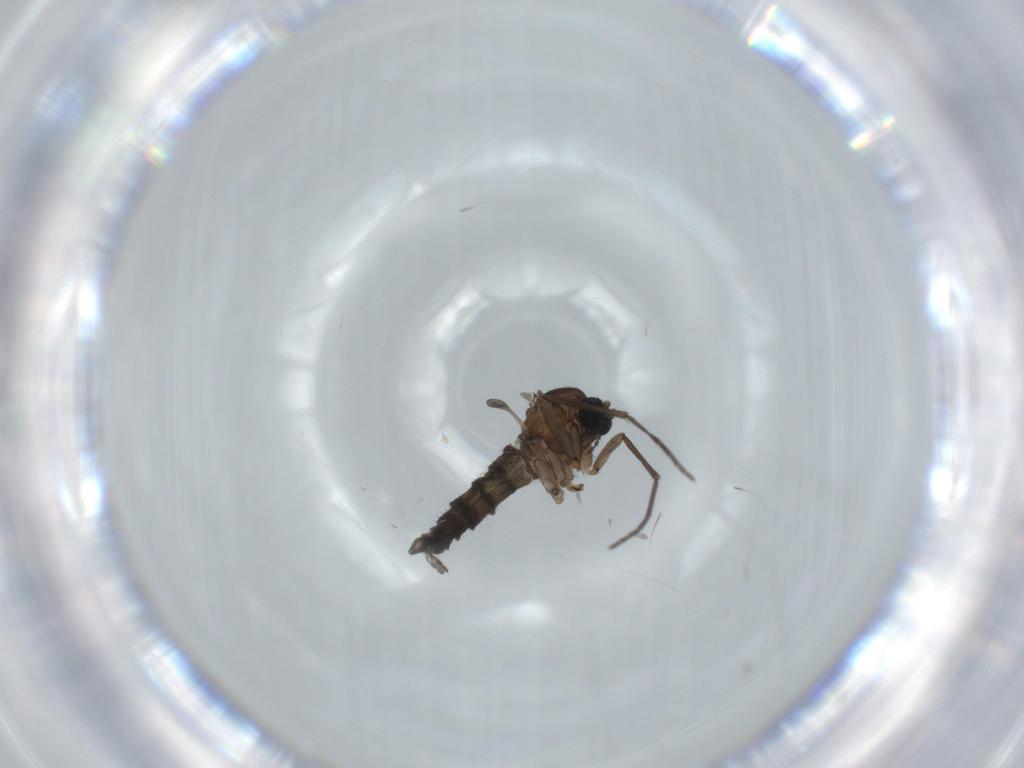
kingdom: Animalia
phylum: Arthropoda
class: Insecta
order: Diptera
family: Sciaridae
